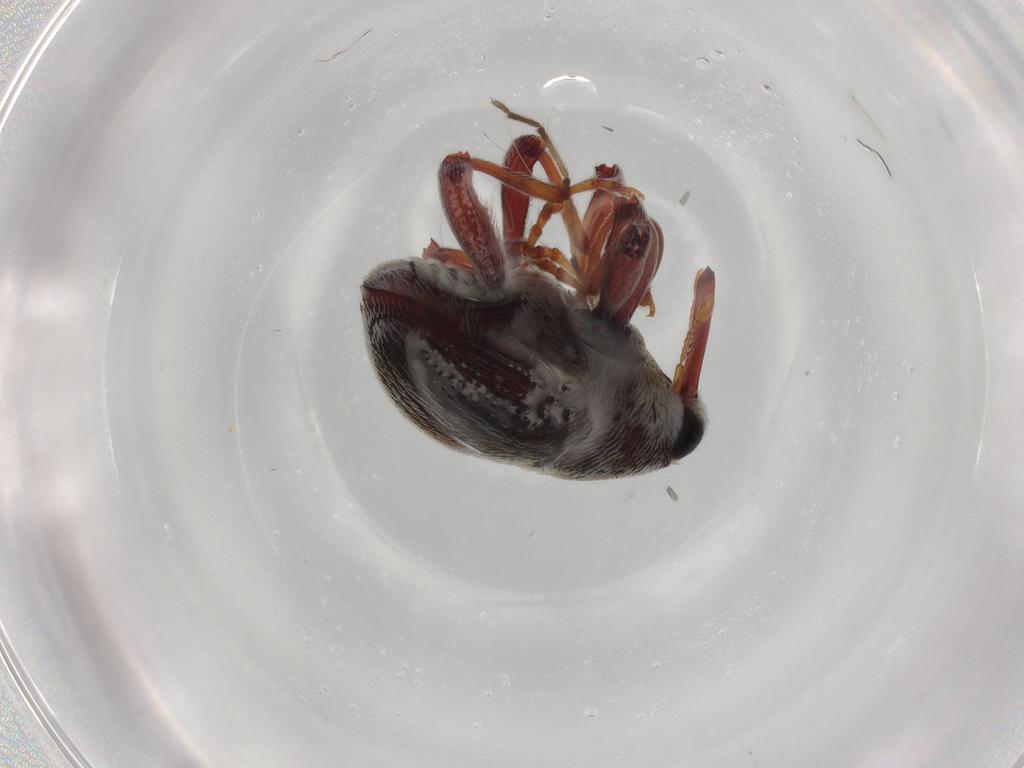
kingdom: Animalia
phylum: Arthropoda
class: Insecta
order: Coleoptera
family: Curculionidae
